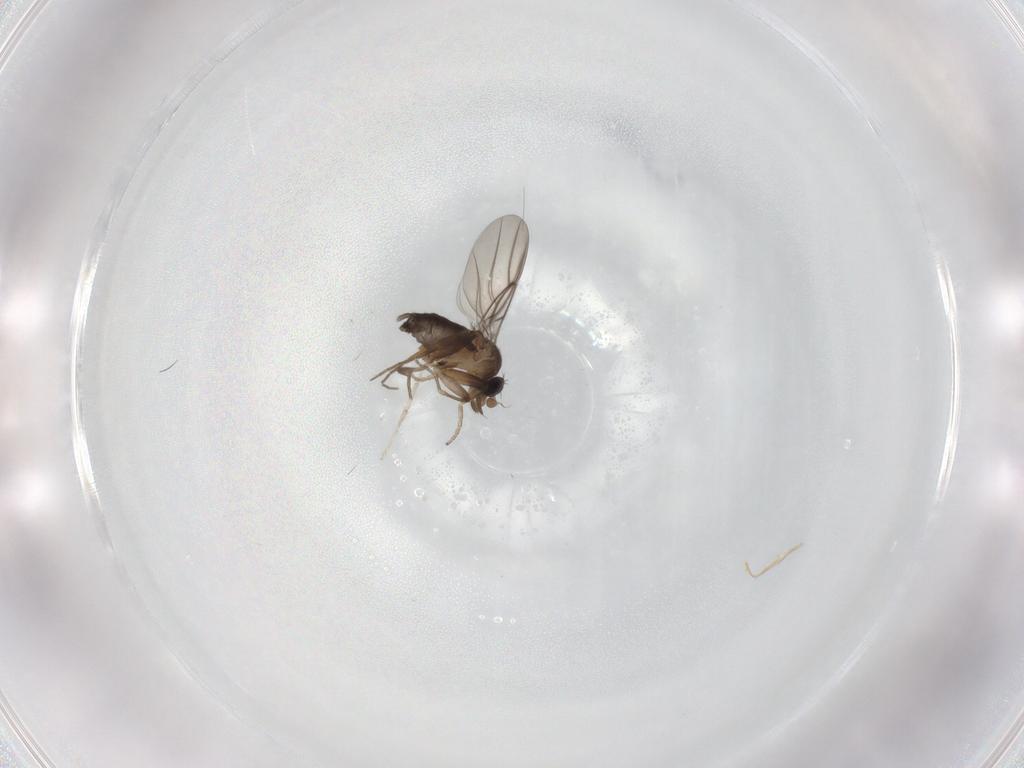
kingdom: Animalia
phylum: Arthropoda
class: Insecta
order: Diptera
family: Phoridae
